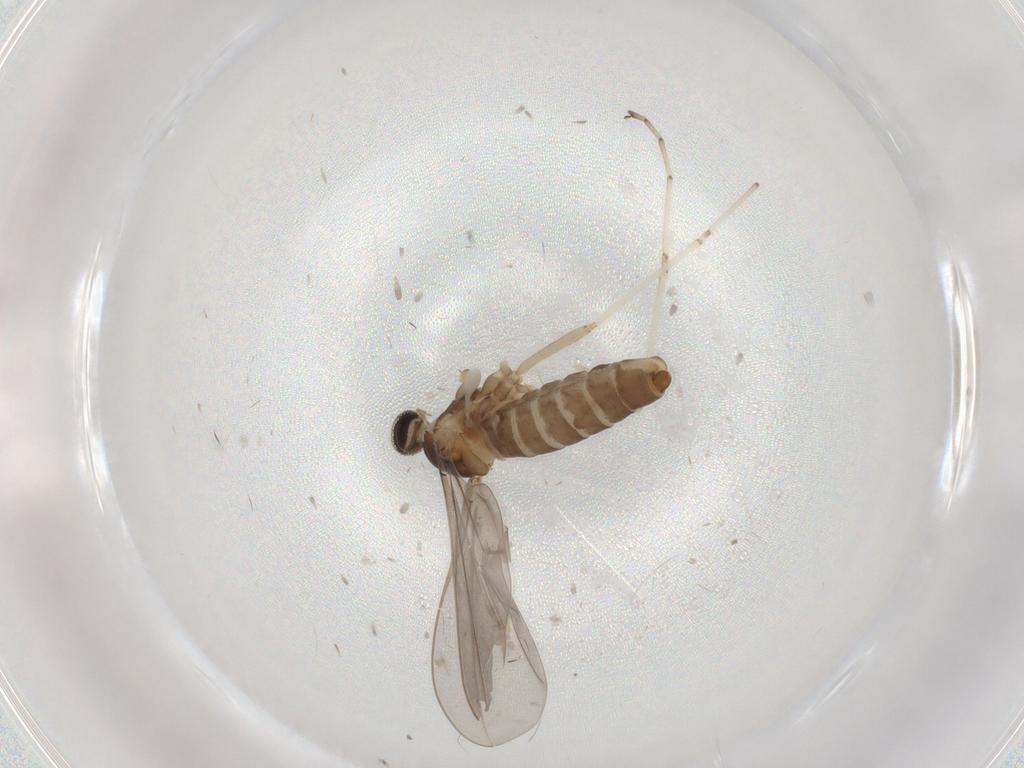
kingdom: Animalia
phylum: Arthropoda
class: Insecta
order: Diptera
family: Cecidomyiidae
